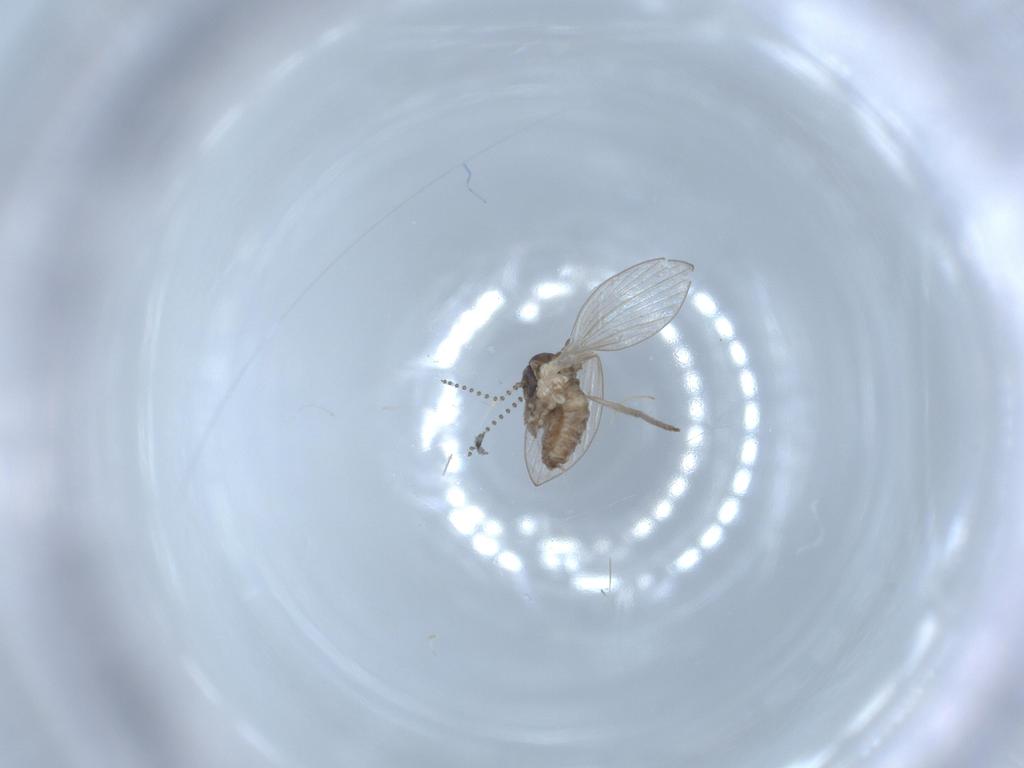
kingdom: Animalia
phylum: Arthropoda
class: Insecta
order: Diptera
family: Psychodidae
